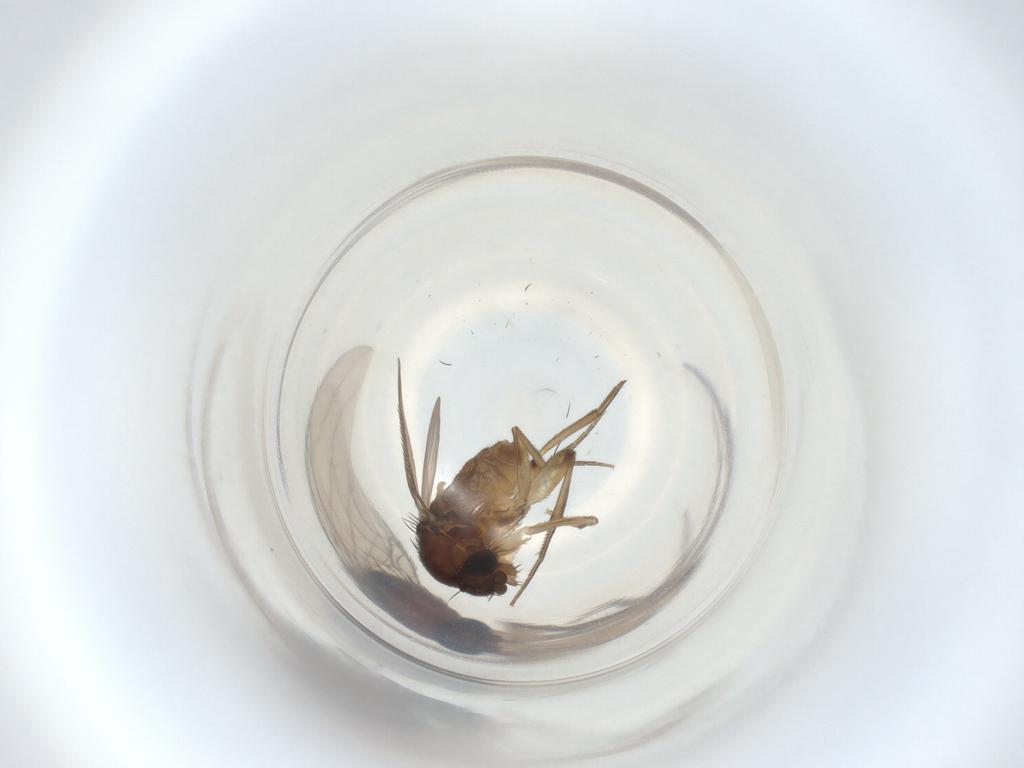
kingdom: Animalia
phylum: Arthropoda
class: Insecta
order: Diptera
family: Phoridae
